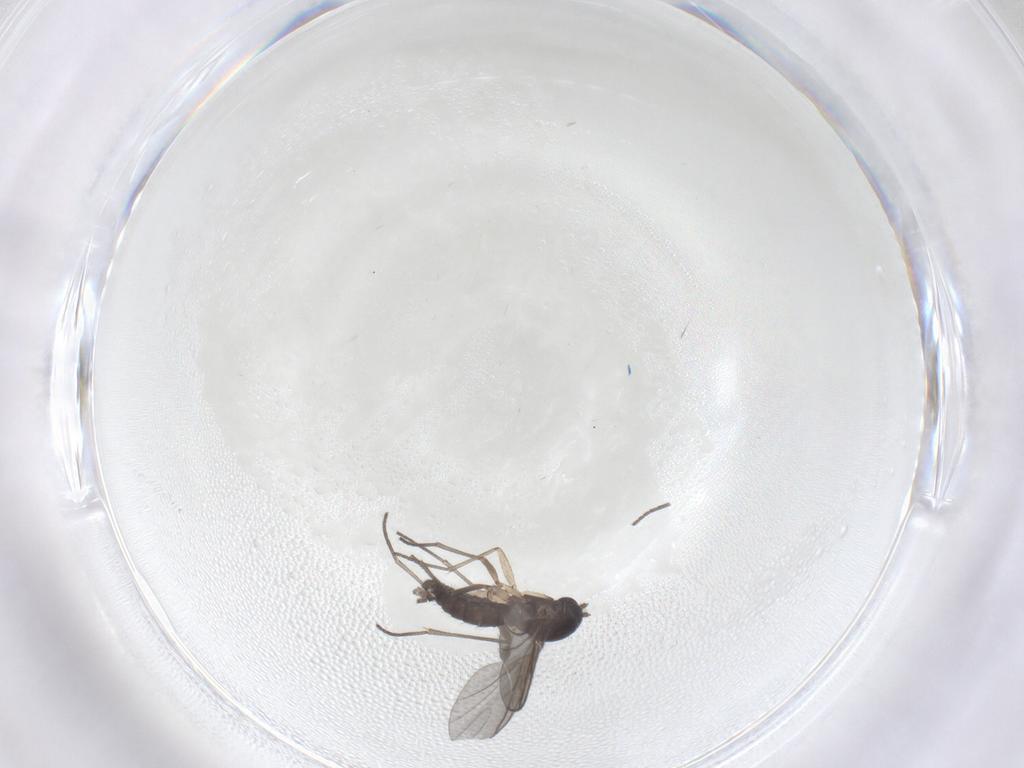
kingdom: Animalia
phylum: Arthropoda
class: Insecta
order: Diptera
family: Sciaridae
